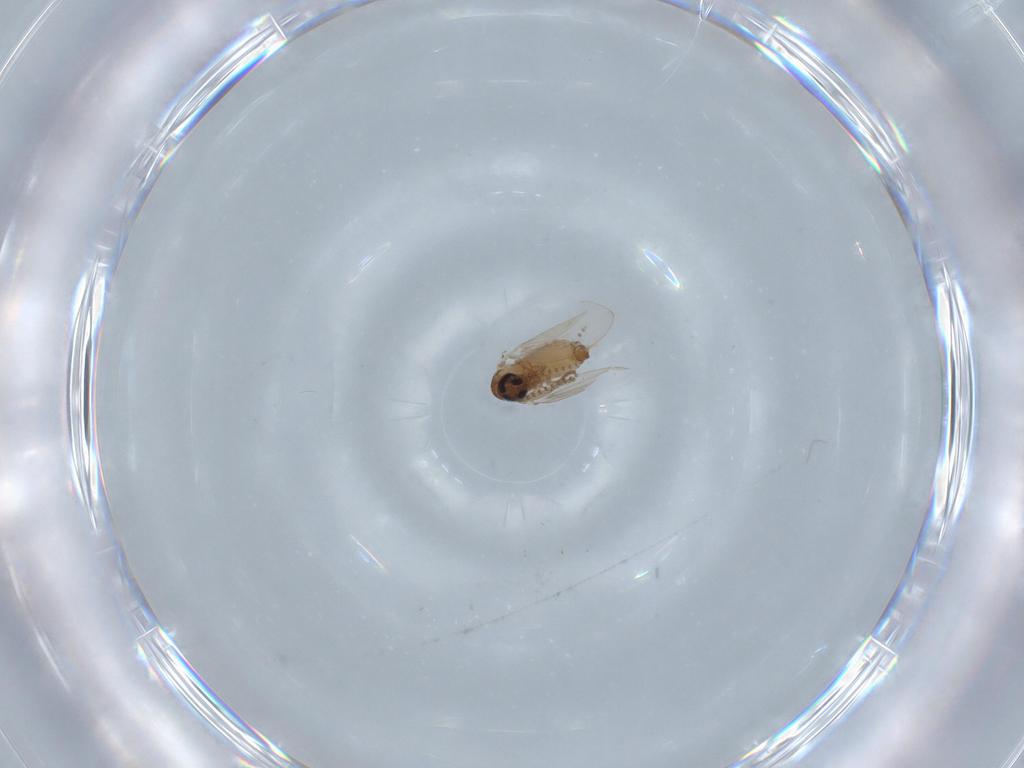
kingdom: Animalia
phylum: Arthropoda
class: Insecta
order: Diptera
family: Psychodidae
